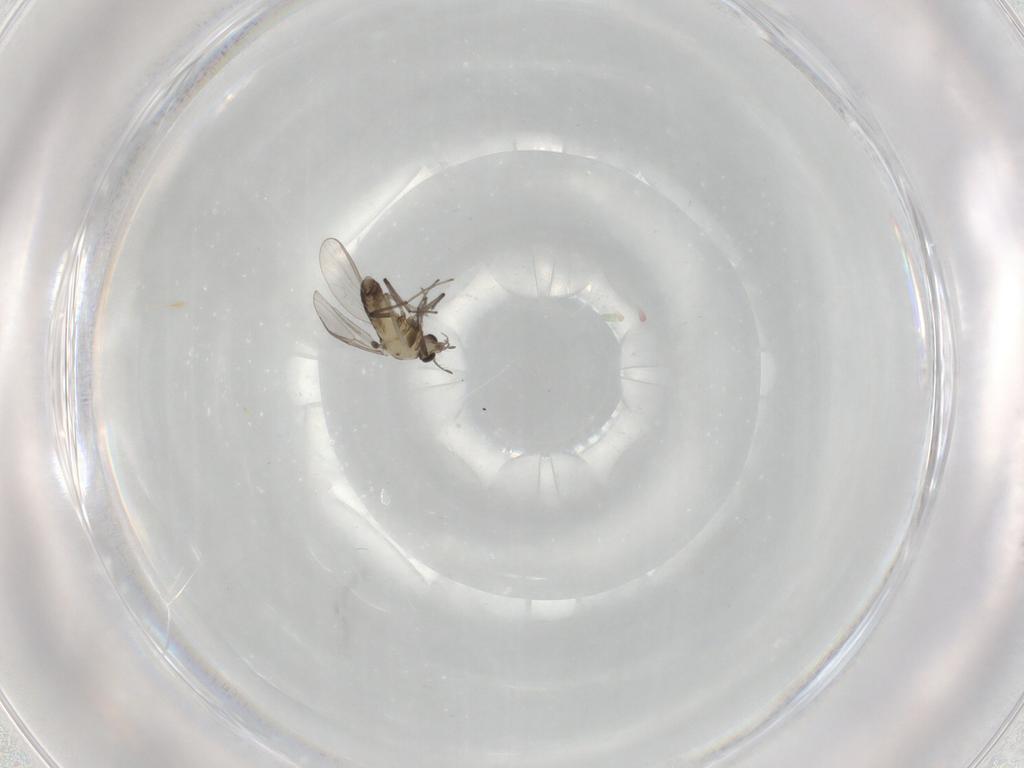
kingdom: Animalia
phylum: Arthropoda
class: Insecta
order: Diptera
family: Chironomidae
